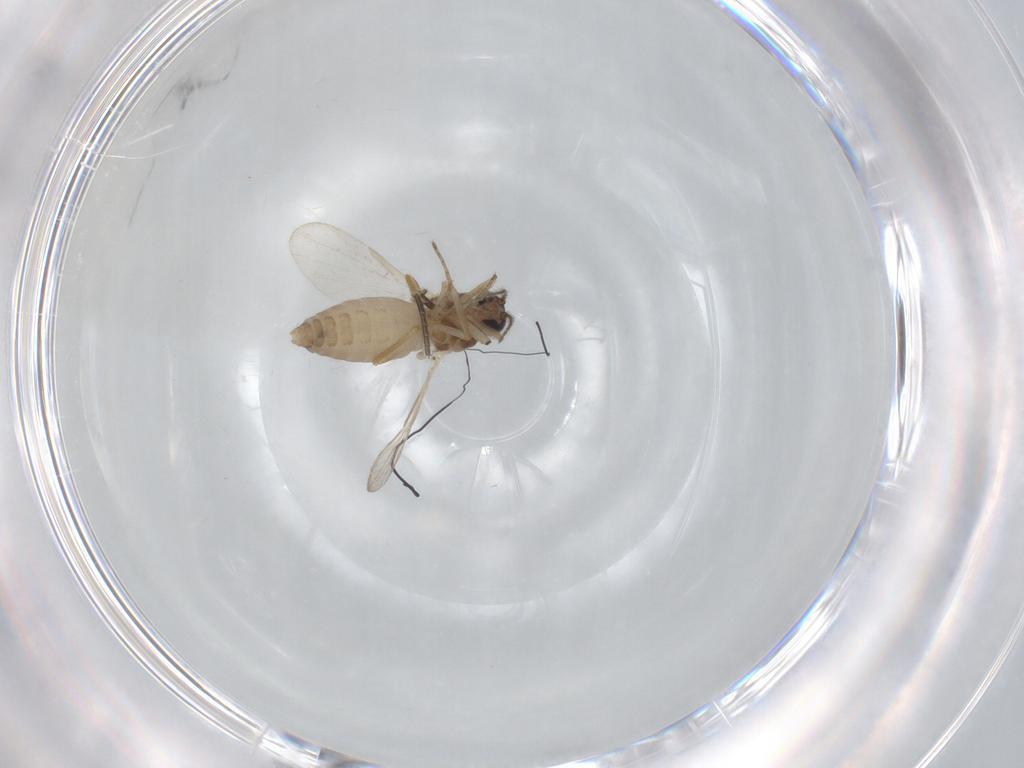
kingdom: Animalia
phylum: Arthropoda
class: Insecta
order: Diptera
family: Ceratopogonidae
